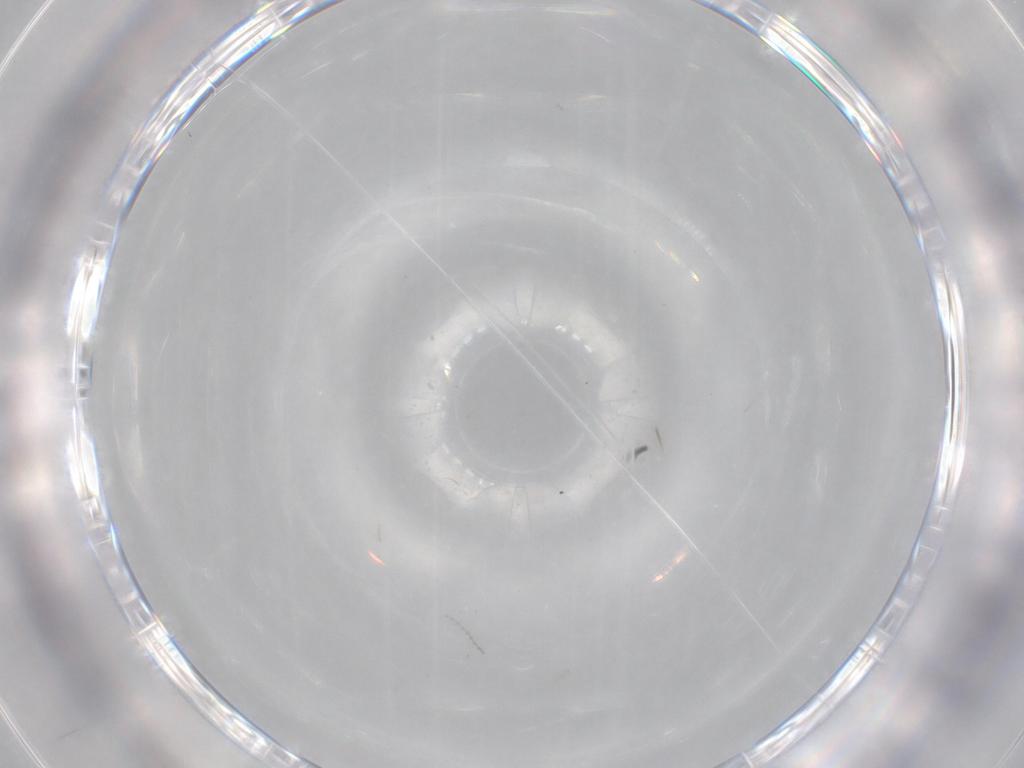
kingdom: Animalia
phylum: Arthropoda
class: Insecta
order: Diptera
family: Cecidomyiidae
